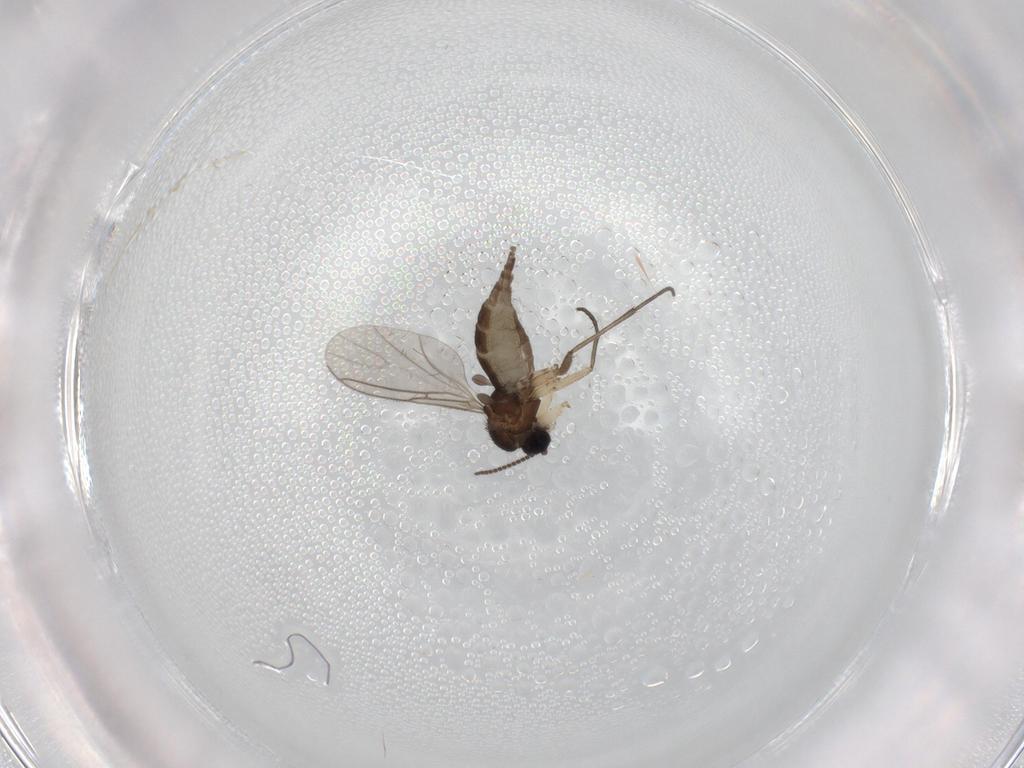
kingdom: Animalia
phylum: Arthropoda
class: Insecta
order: Diptera
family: Sciaridae
